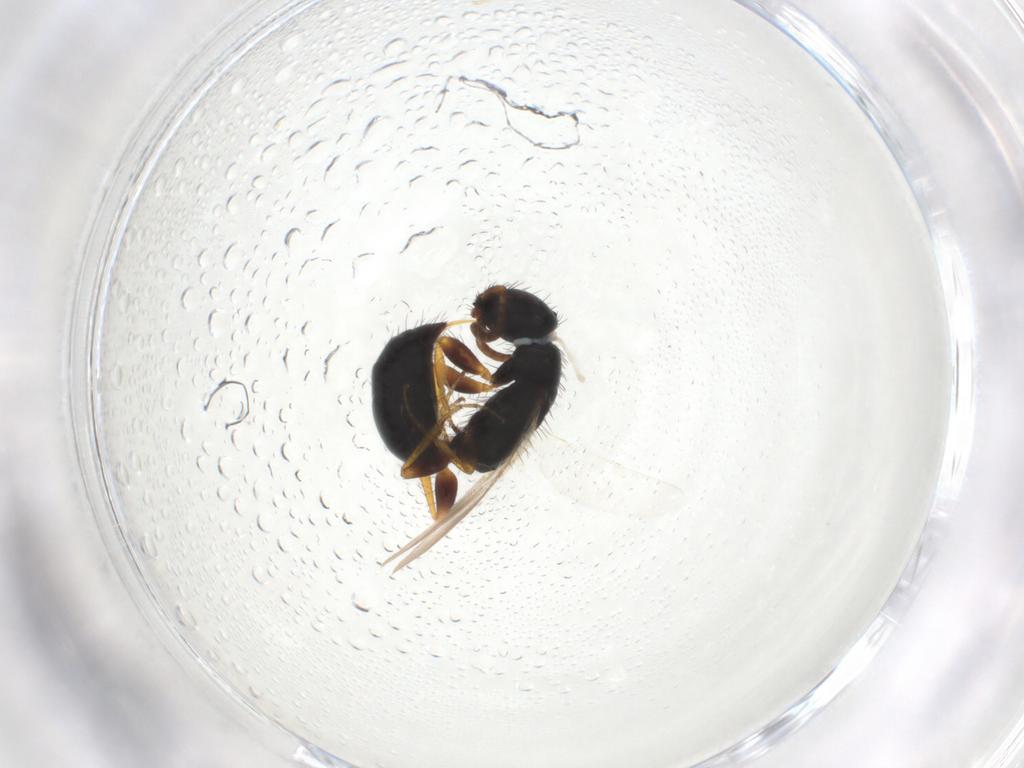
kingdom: Animalia
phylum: Arthropoda
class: Insecta
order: Hymenoptera
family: Bethylidae
